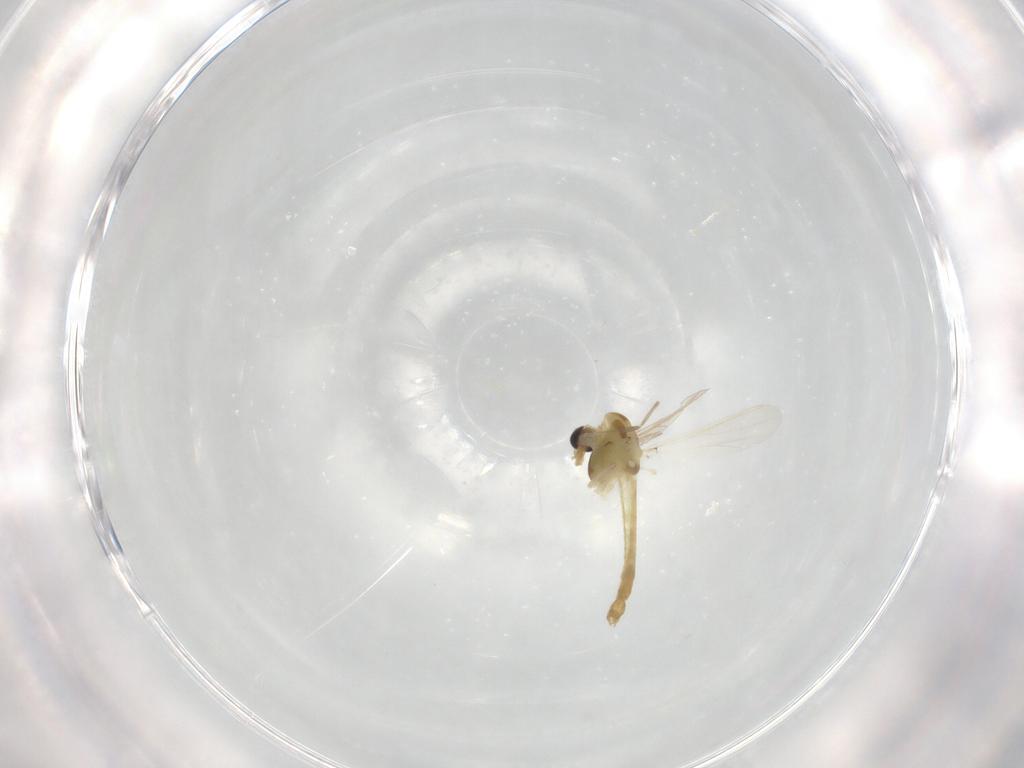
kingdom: Animalia
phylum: Arthropoda
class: Insecta
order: Diptera
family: Chironomidae
